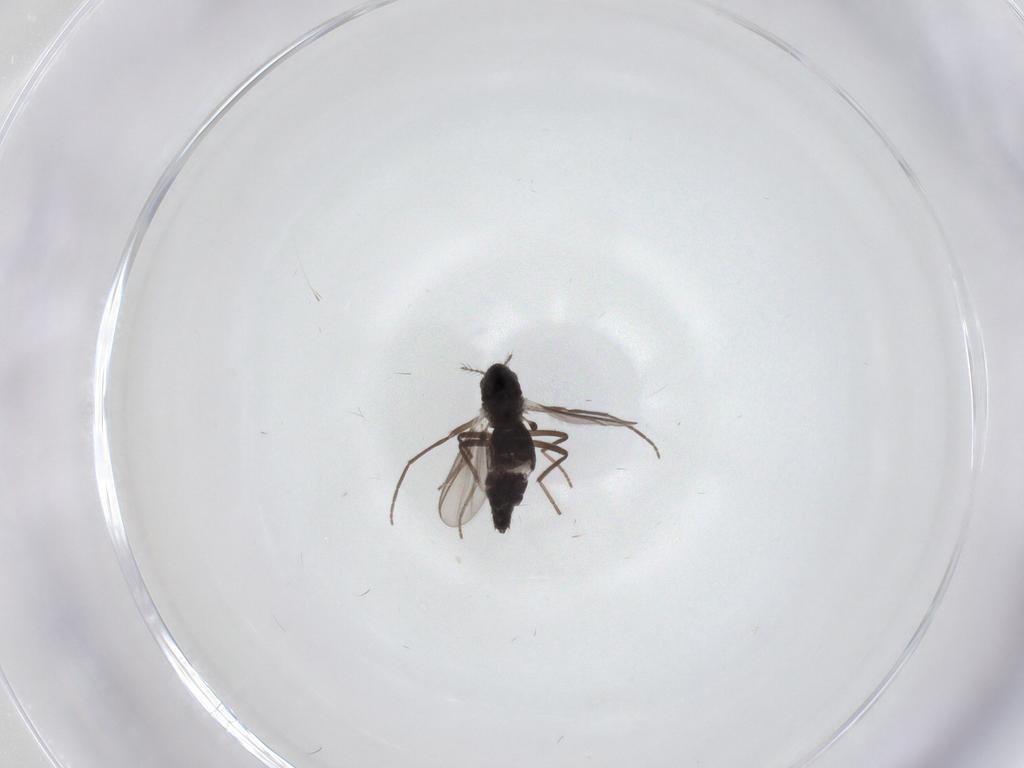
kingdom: Animalia
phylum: Arthropoda
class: Insecta
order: Diptera
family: Chironomidae
